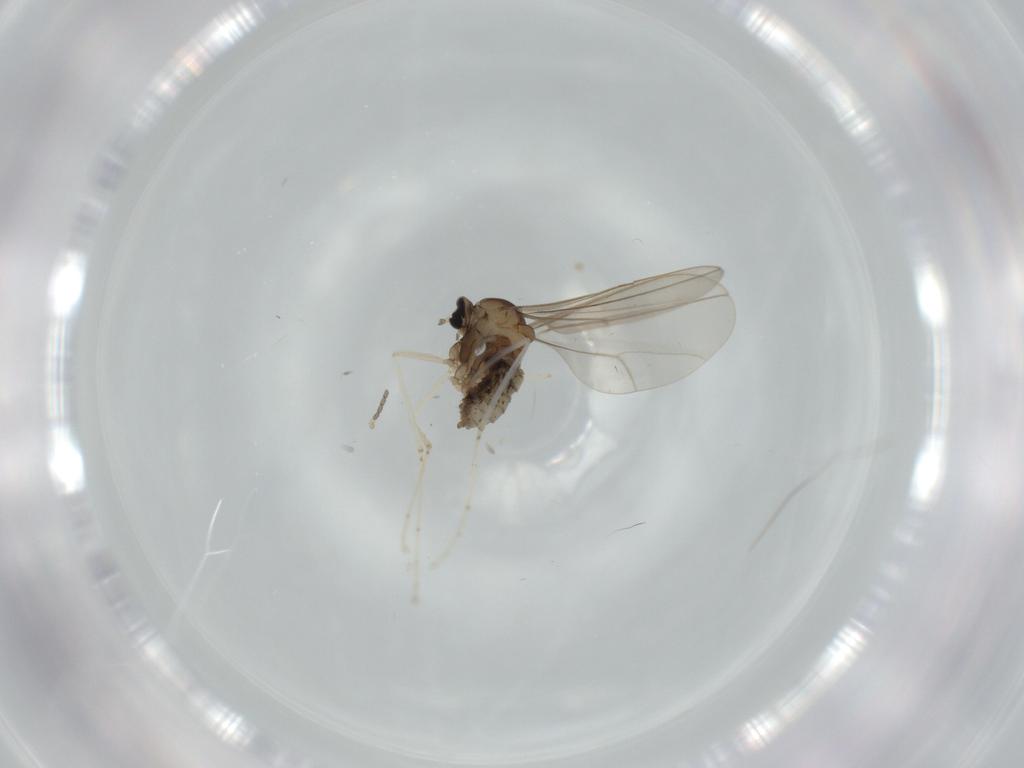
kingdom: Animalia
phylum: Arthropoda
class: Insecta
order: Diptera
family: Cecidomyiidae
